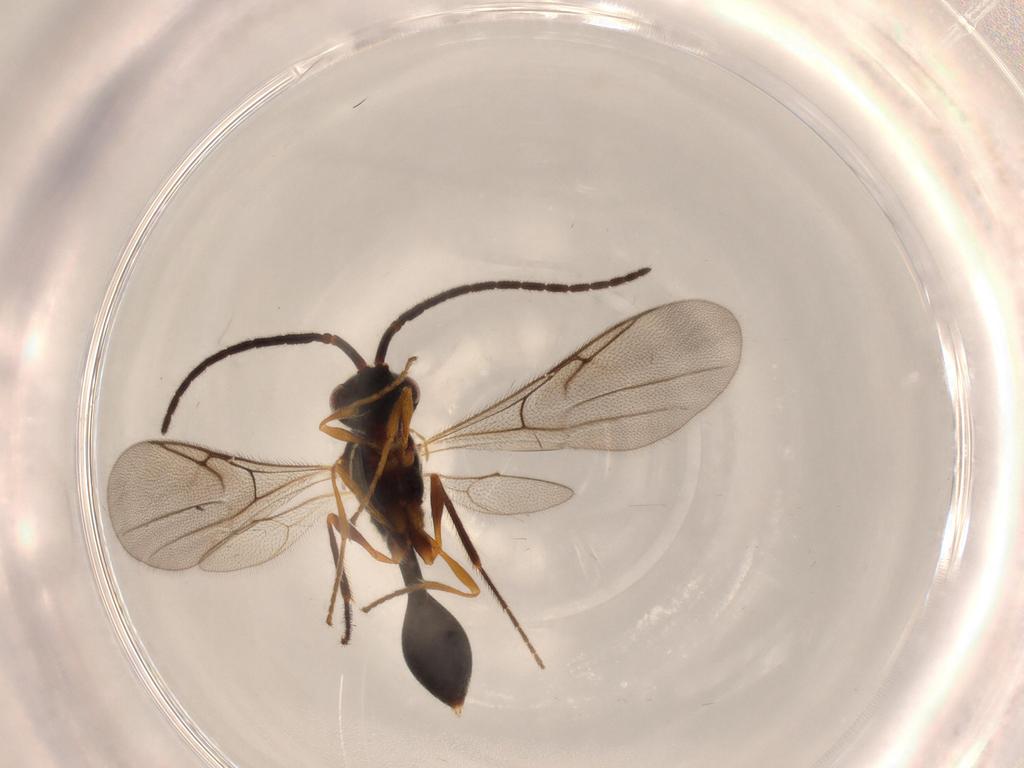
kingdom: Animalia
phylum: Arthropoda
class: Insecta
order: Hymenoptera
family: Diapriidae
